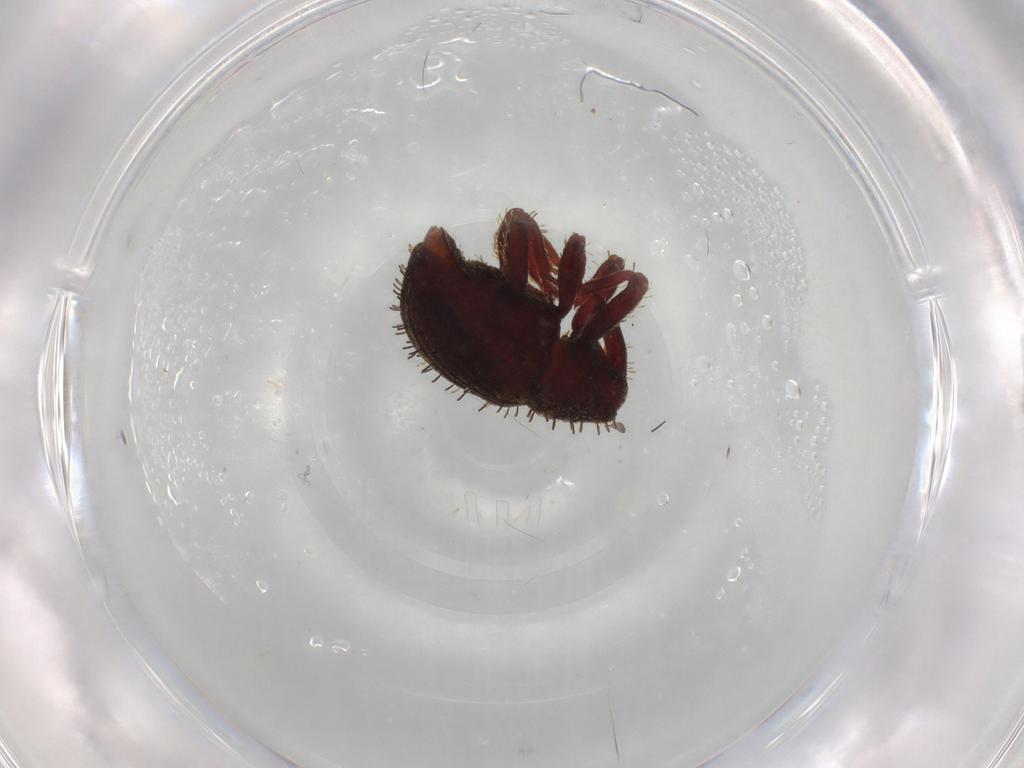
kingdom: Animalia
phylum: Arthropoda
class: Insecta
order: Coleoptera
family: Curculionidae
